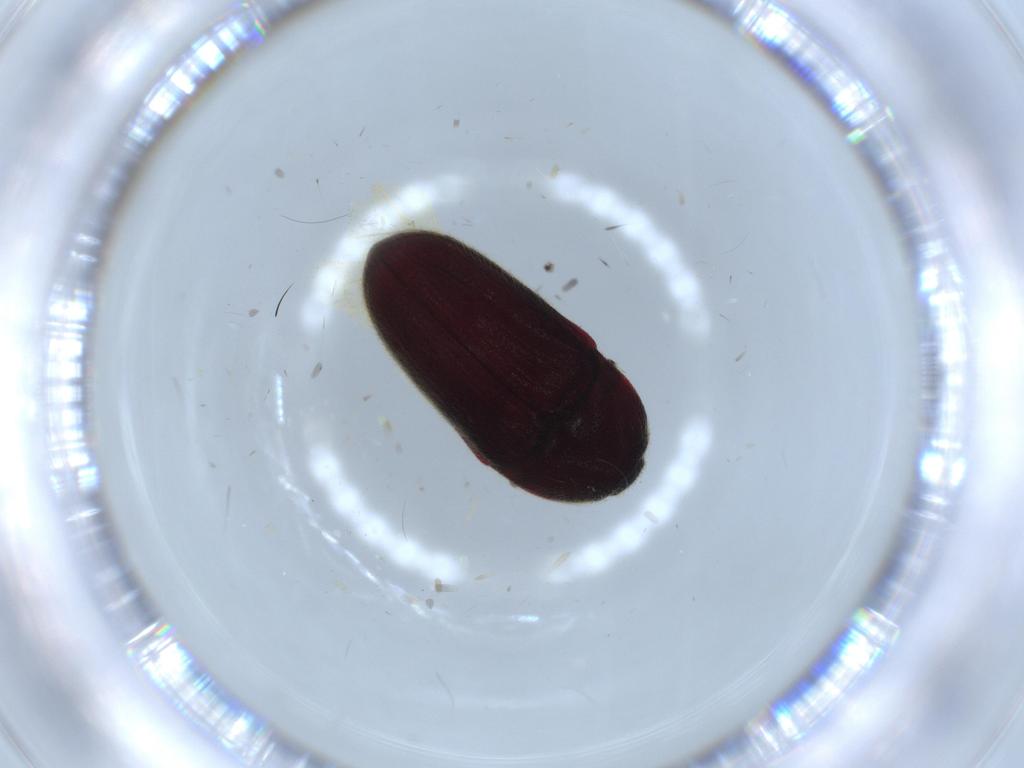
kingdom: Animalia
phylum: Arthropoda
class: Insecta
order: Coleoptera
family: Throscidae
